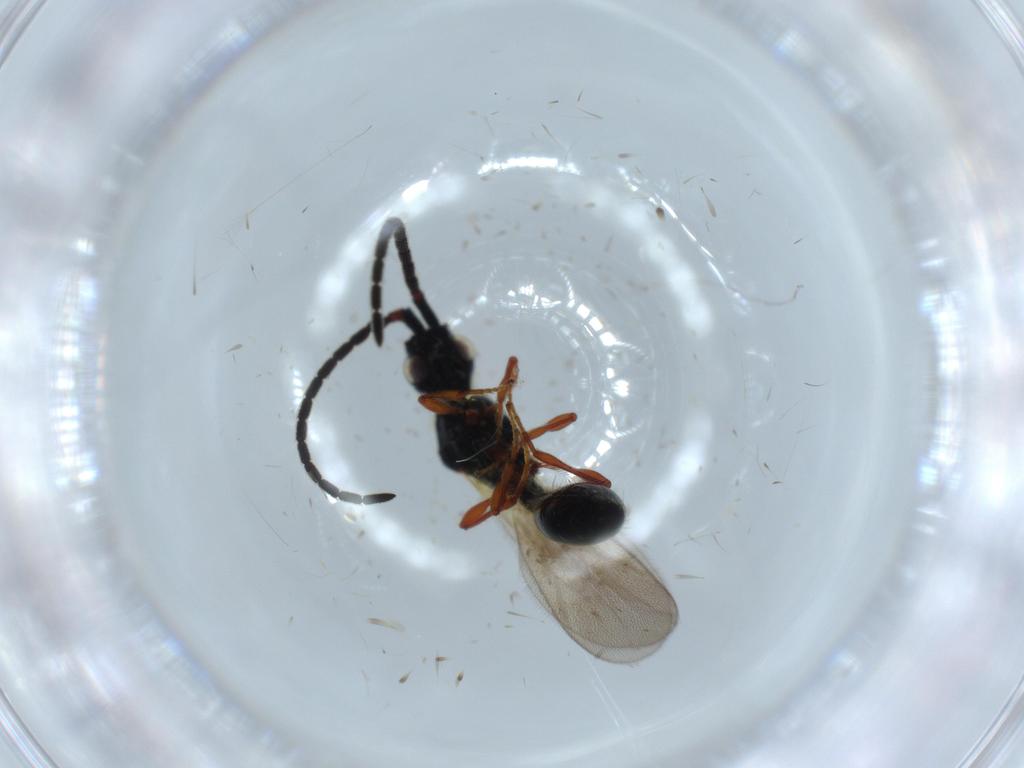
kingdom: Animalia
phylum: Arthropoda
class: Insecta
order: Hymenoptera
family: Diapriidae
